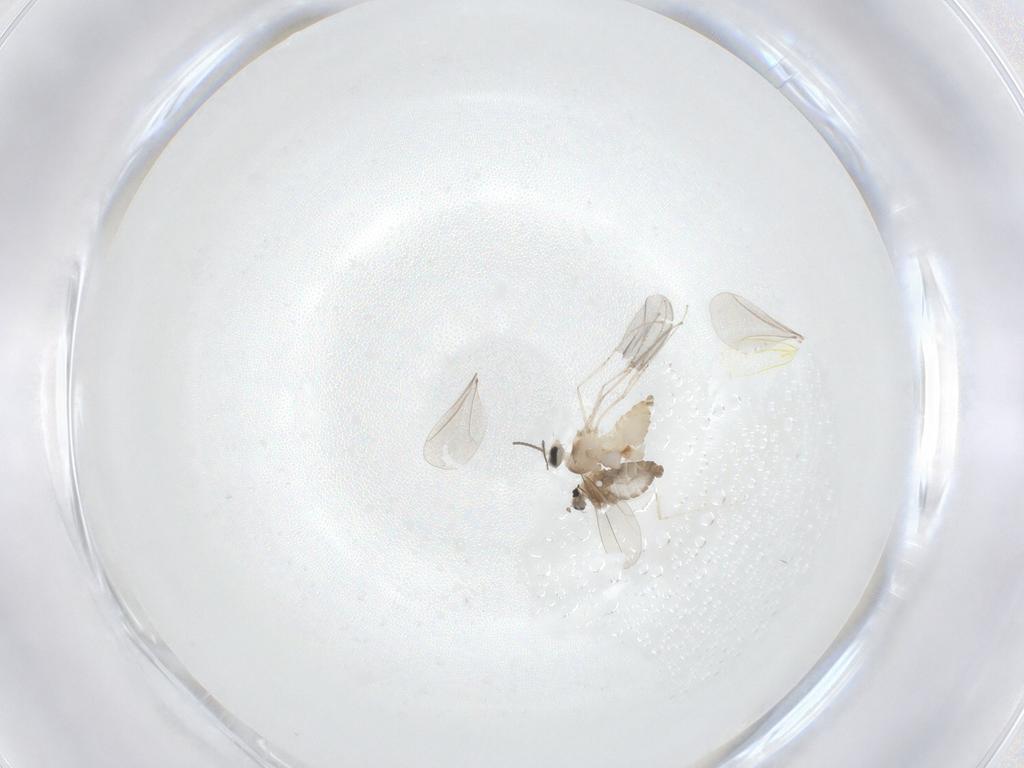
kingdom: Animalia
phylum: Arthropoda
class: Insecta
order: Diptera
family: Cecidomyiidae
